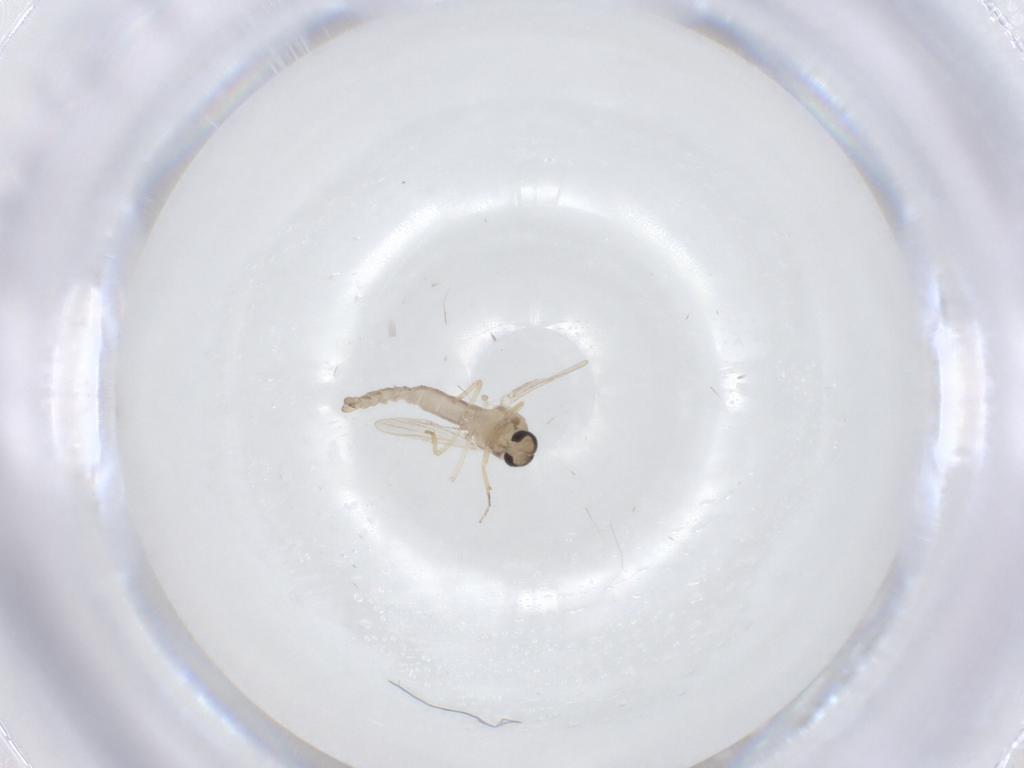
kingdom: Animalia
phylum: Arthropoda
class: Insecta
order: Diptera
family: Ceratopogonidae
